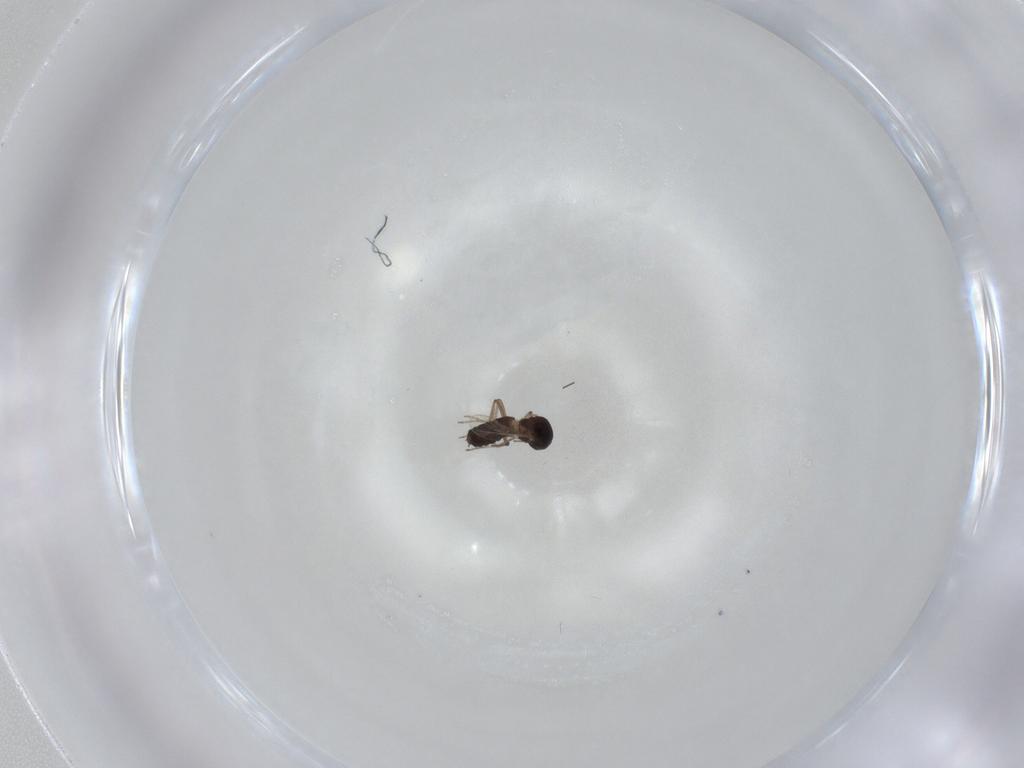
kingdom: Animalia
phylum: Arthropoda
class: Insecta
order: Diptera
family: Ceratopogonidae
